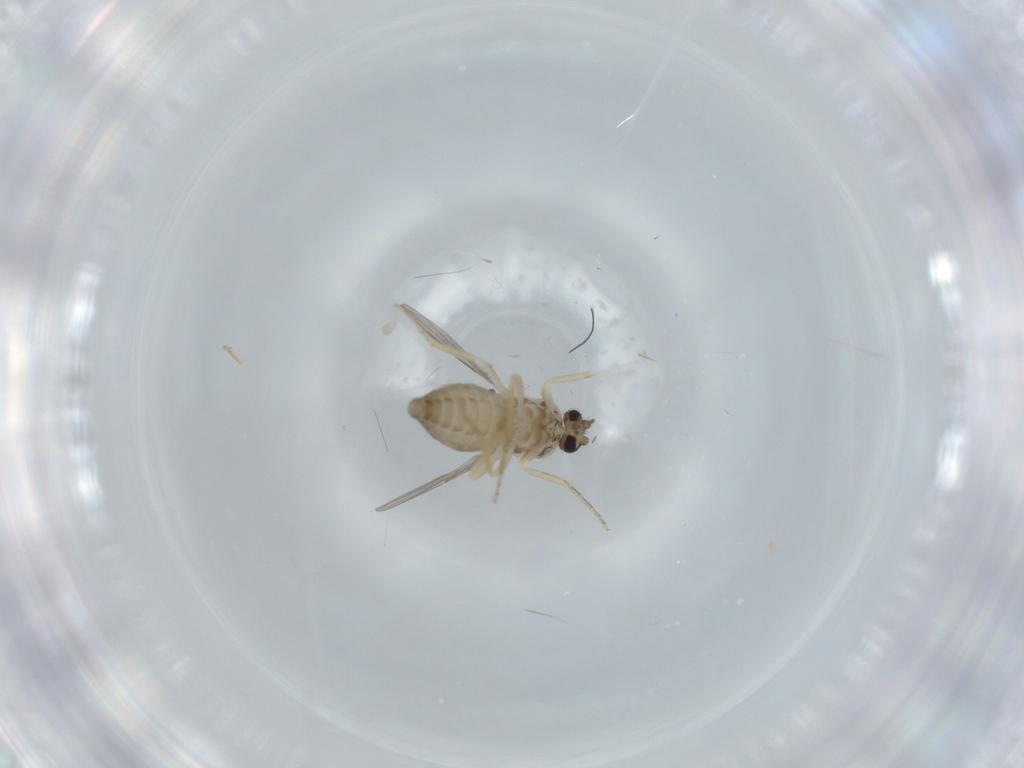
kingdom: Animalia
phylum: Arthropoda
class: Insecta
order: Diptera
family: Ceratopogonidae
